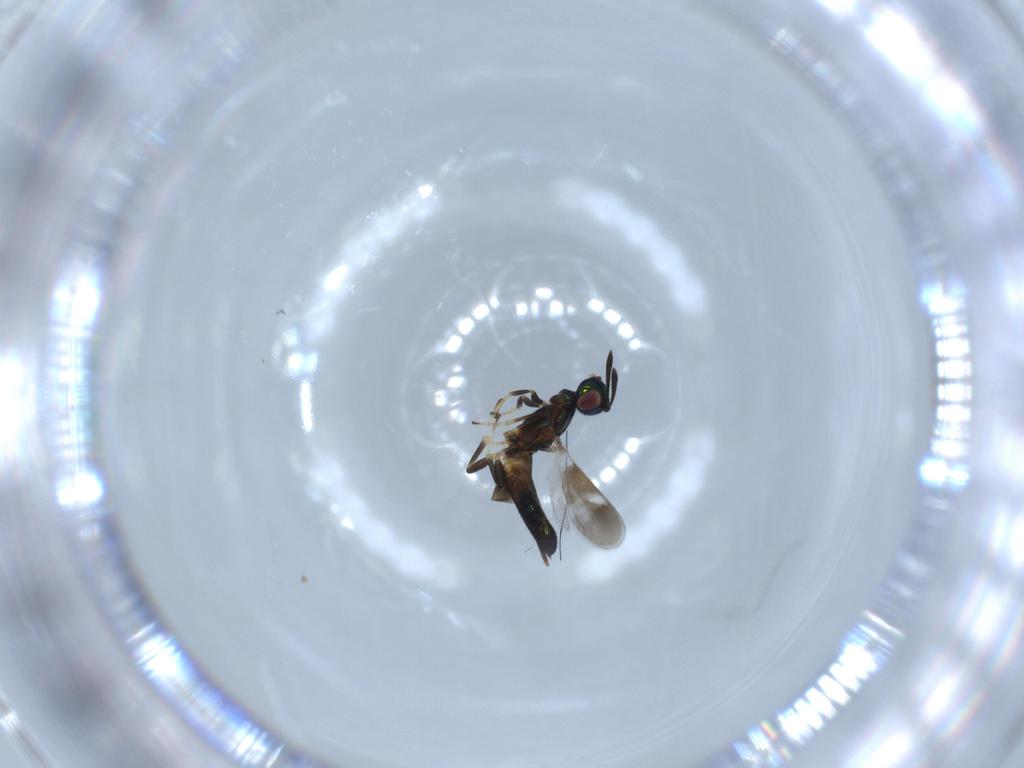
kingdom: Animalia
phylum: Arthropoda
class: Insecta
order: Hymenoptera
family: Eupelmidae
